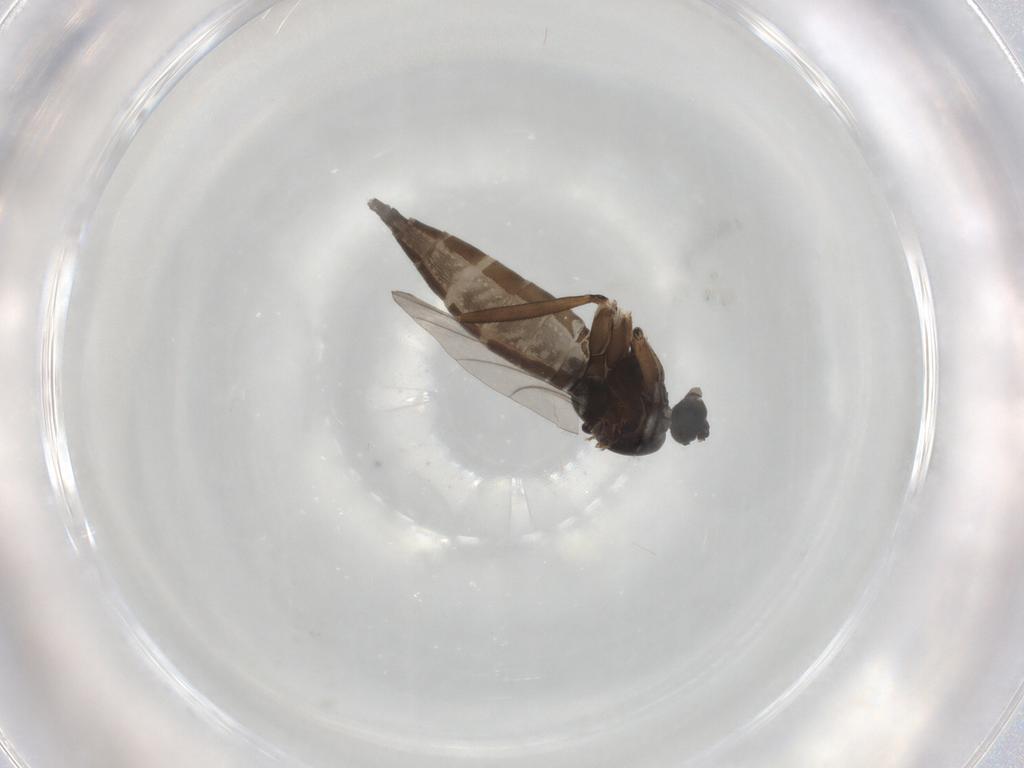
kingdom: Animalia
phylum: Arthropoda
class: Insecta
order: Diptera
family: Sciaridae
